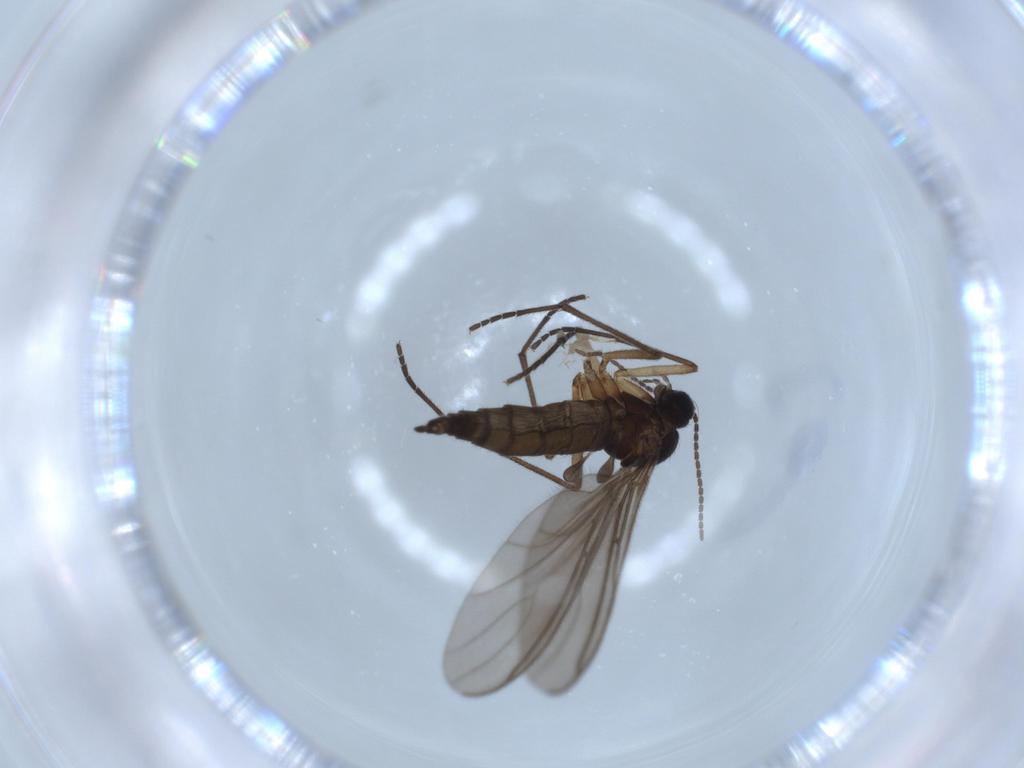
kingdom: Animalia
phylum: Arthropoda
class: Insecta
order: Diptera
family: Sciaridae
